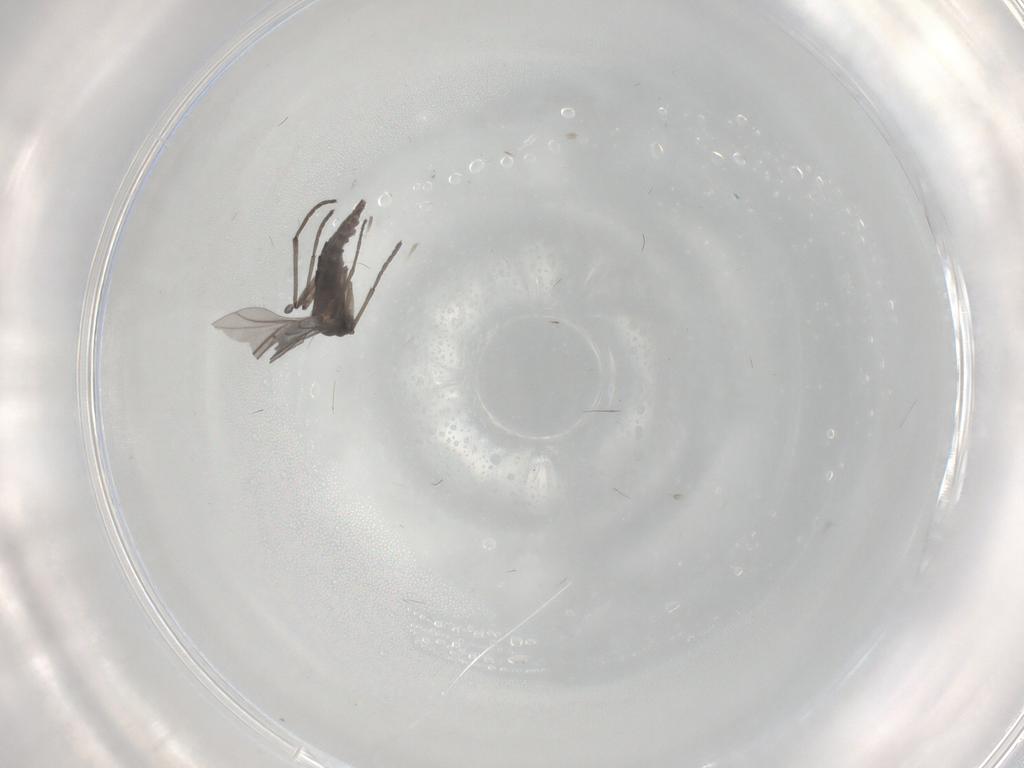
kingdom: Animalia
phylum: Arthropoda
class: Insecta
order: Diptera
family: Sciaridae
